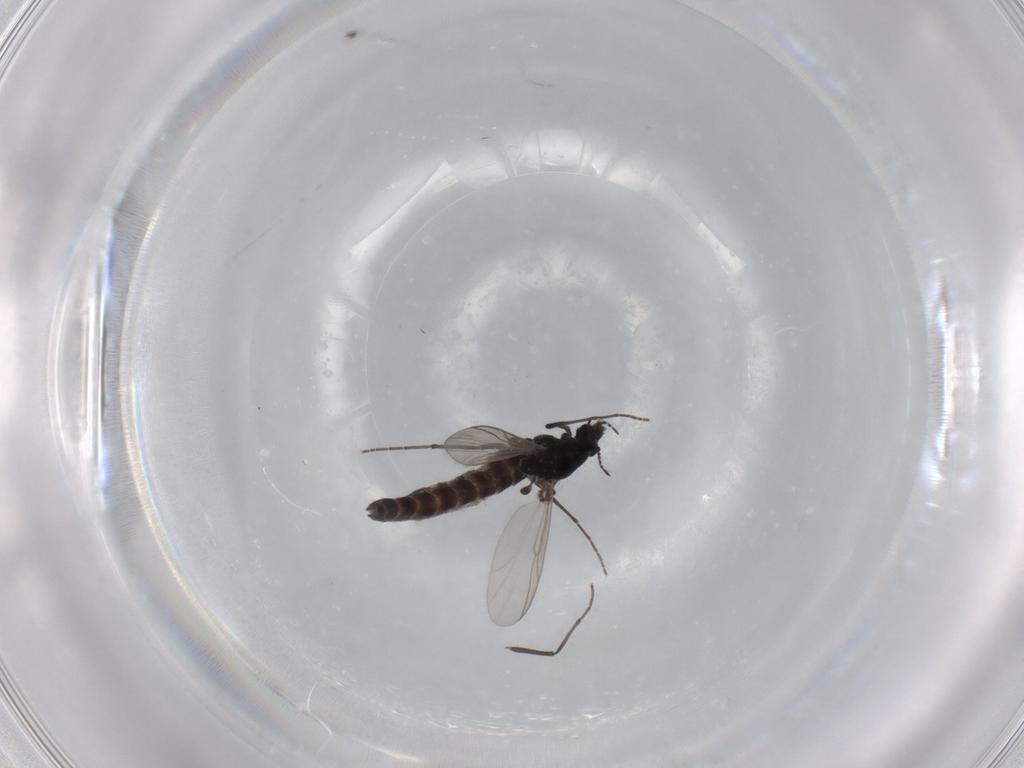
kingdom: Animalia
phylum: Arthropoda
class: Insecta
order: Diptera
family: Chironomidae
